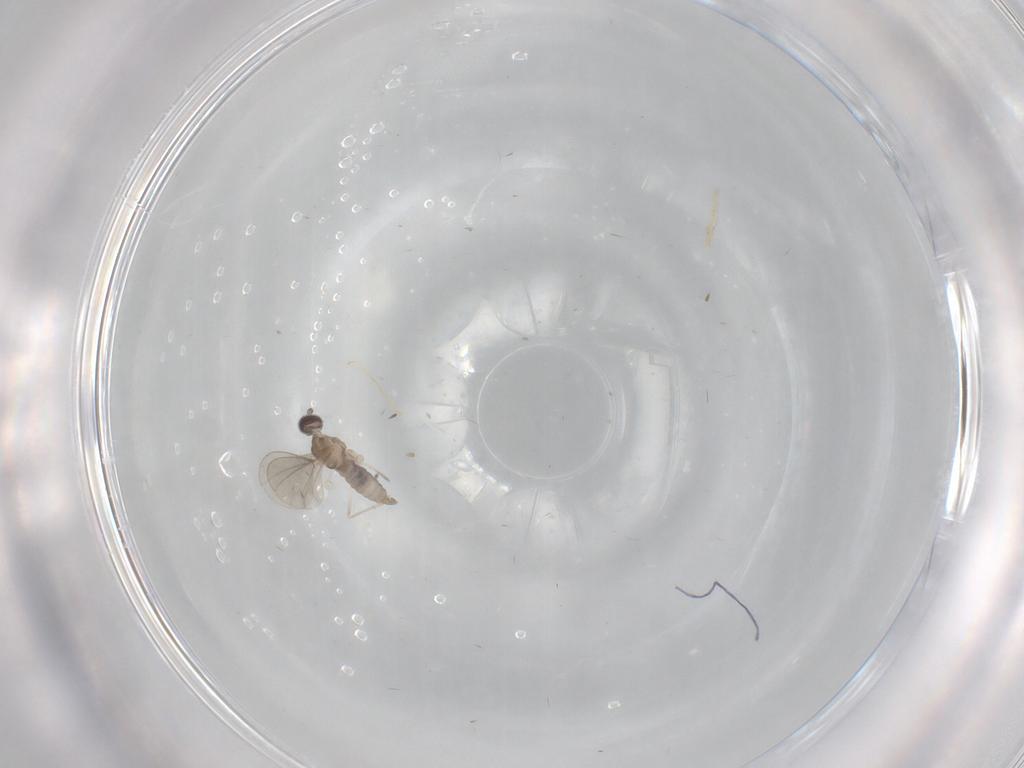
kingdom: Animalia
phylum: Arthropoda
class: Insecta
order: Diptera
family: Cecidomyiidae
